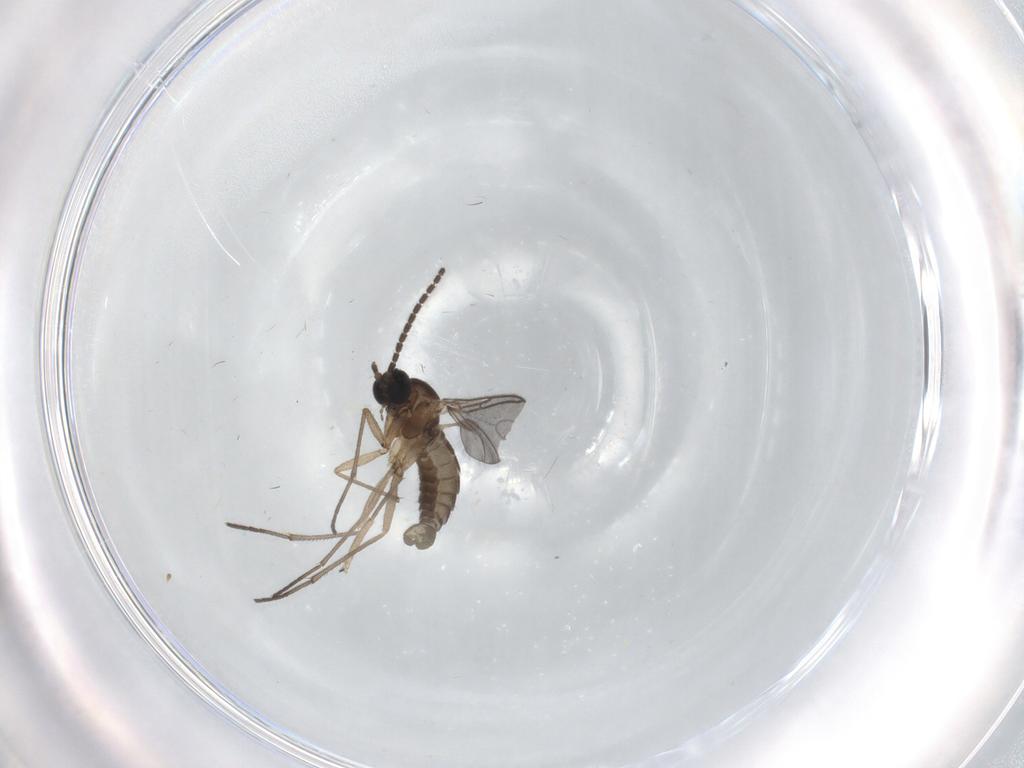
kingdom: Animalia
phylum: Arthropoda
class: Insecta
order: Diptera
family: Sciaridae
